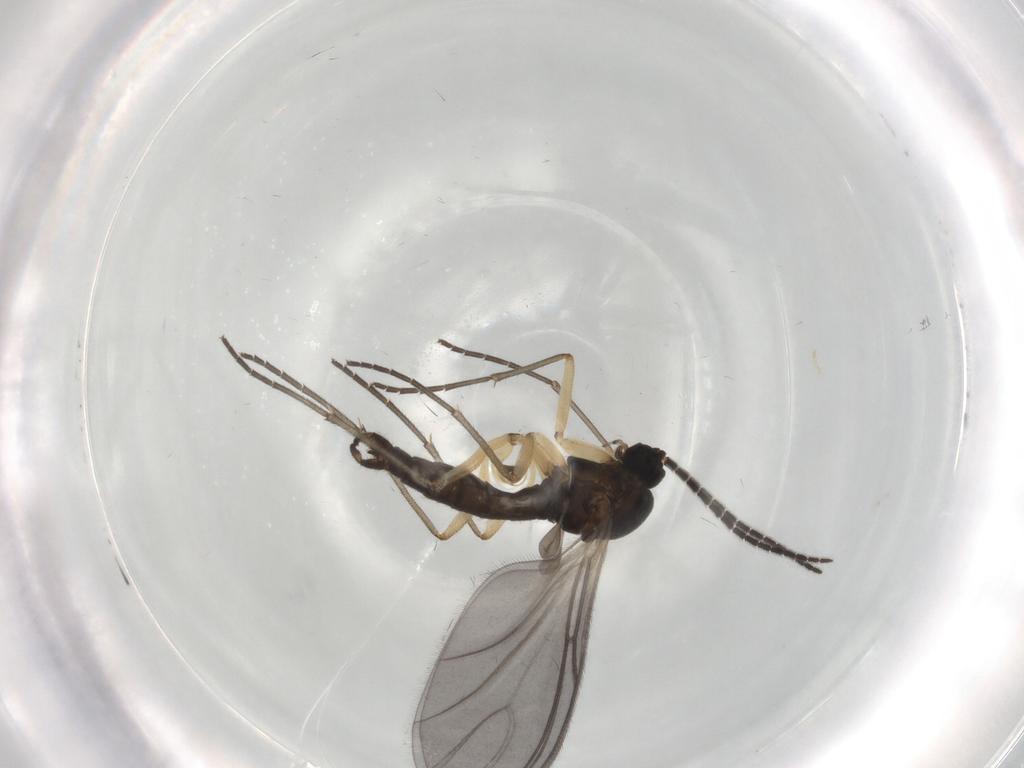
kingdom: Animalia
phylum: Arthropoda
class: Insecta
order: Diptera
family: Sciaridae
